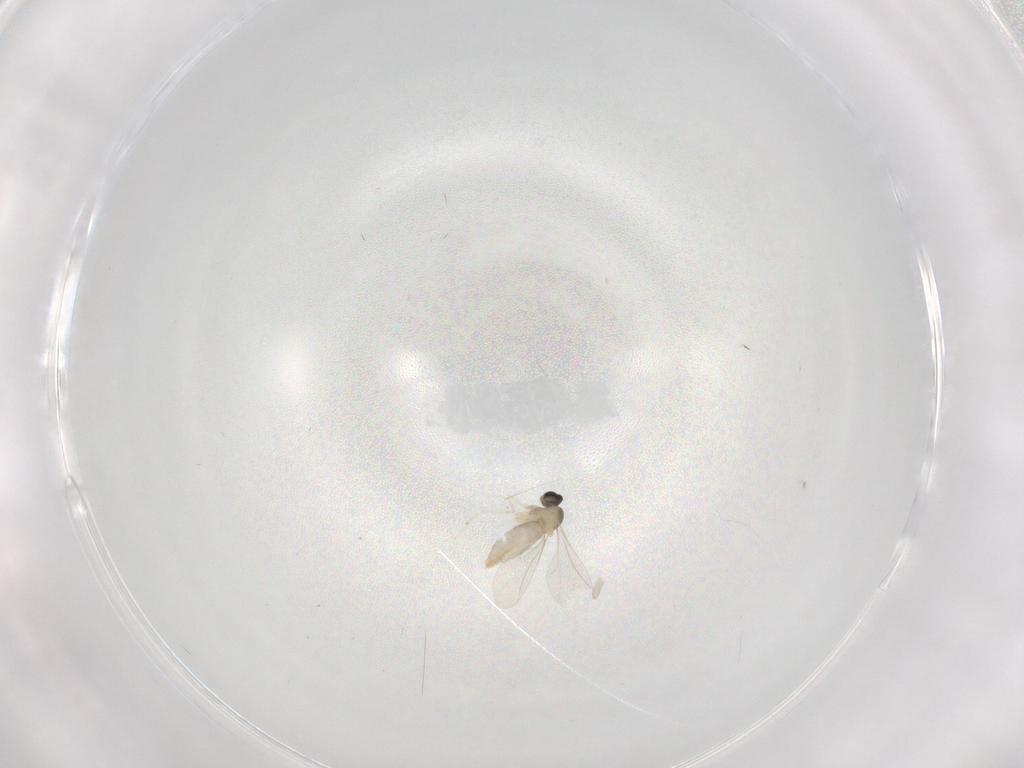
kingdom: Animalia
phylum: Arthropoda
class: Insecta
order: Diptera
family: Cecidomyiidae
